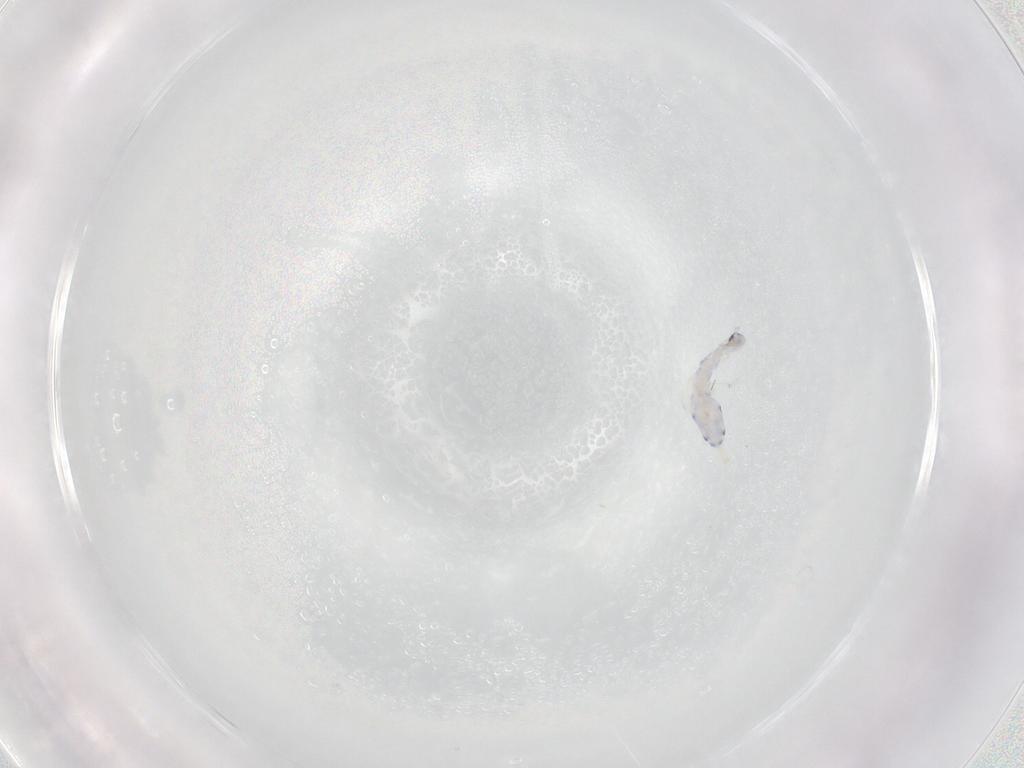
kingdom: Animalia
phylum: Arthropoda
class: Collembola
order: Entomobryomorpha
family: Entomobryidae
